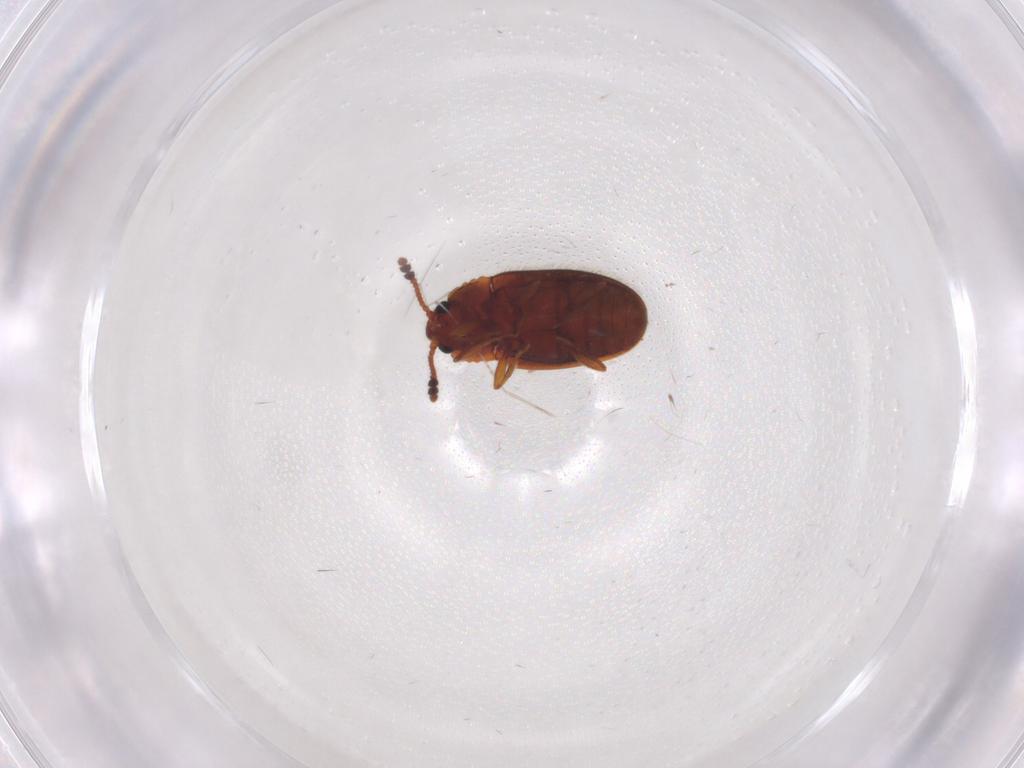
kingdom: Animalia
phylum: Arthropoda
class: Insecta
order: Coleoptera
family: Erotylidae
